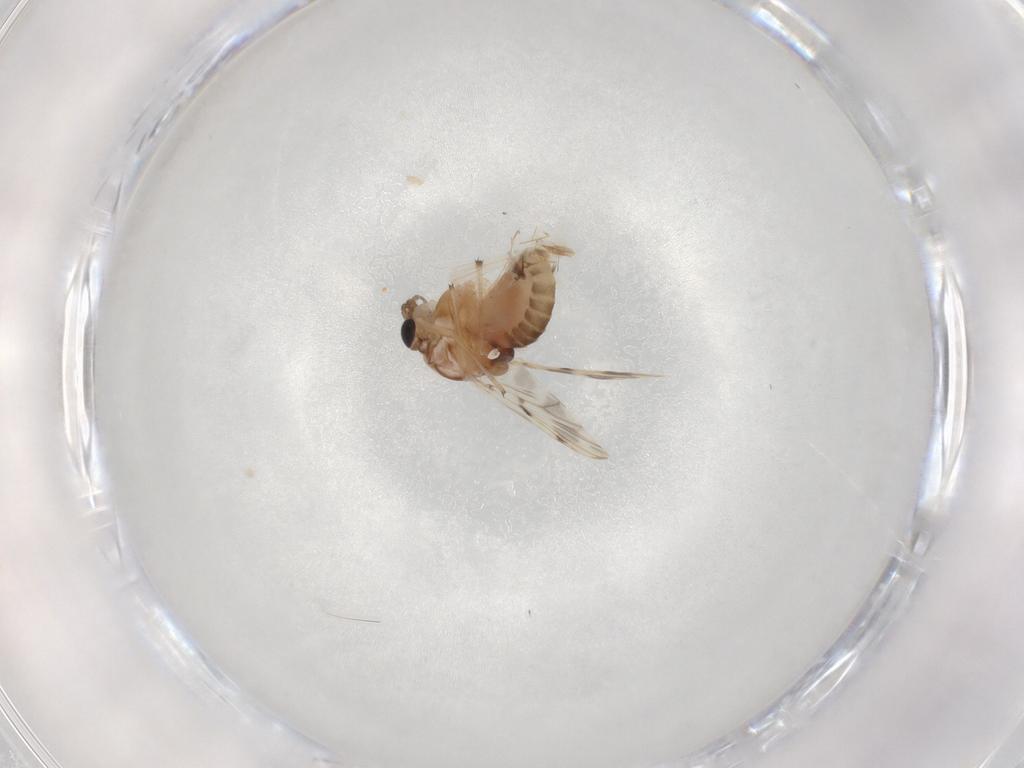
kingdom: Animalia
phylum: Arthropoda
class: Insecta
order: Diptera
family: Chironomidae
